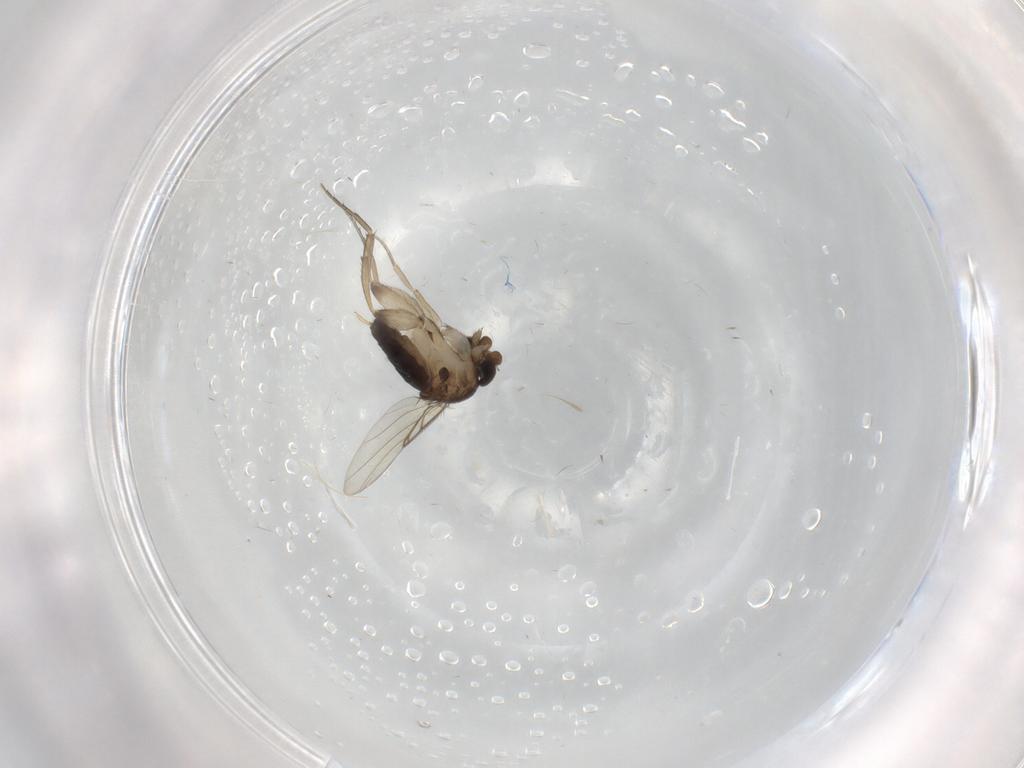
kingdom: Animalia
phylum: Arthropoda
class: Insecta
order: Diptera
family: Phoridae
